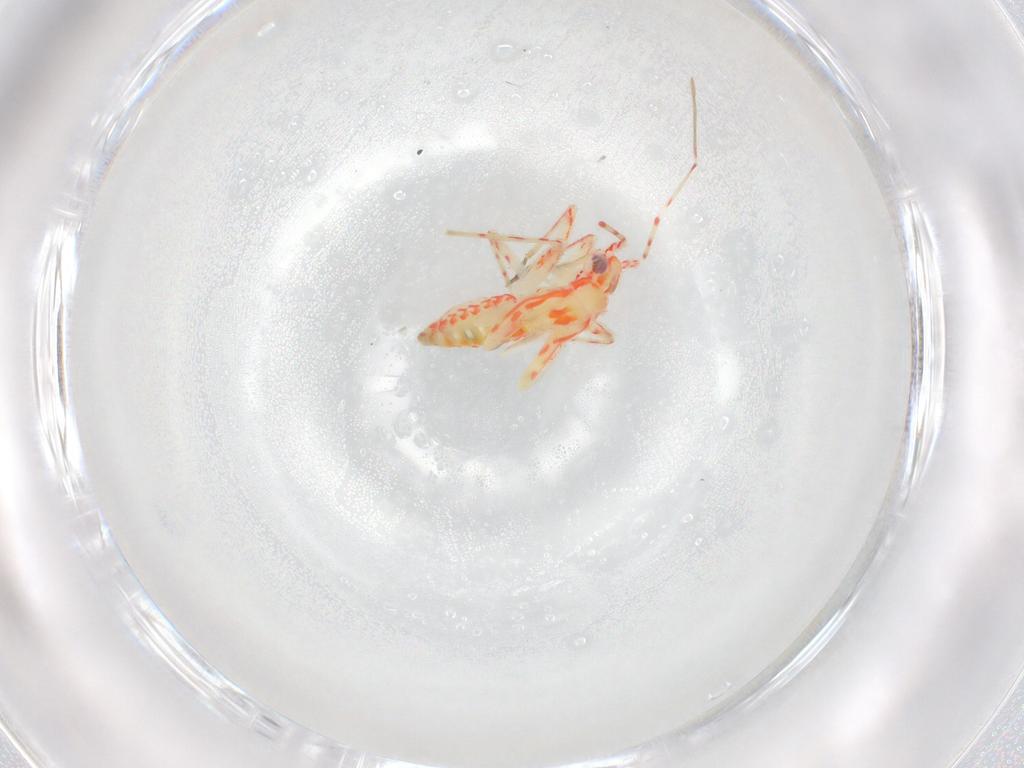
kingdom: Animalia
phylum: Arthropoda
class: Insecta
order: Hemiptera
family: Miridae
